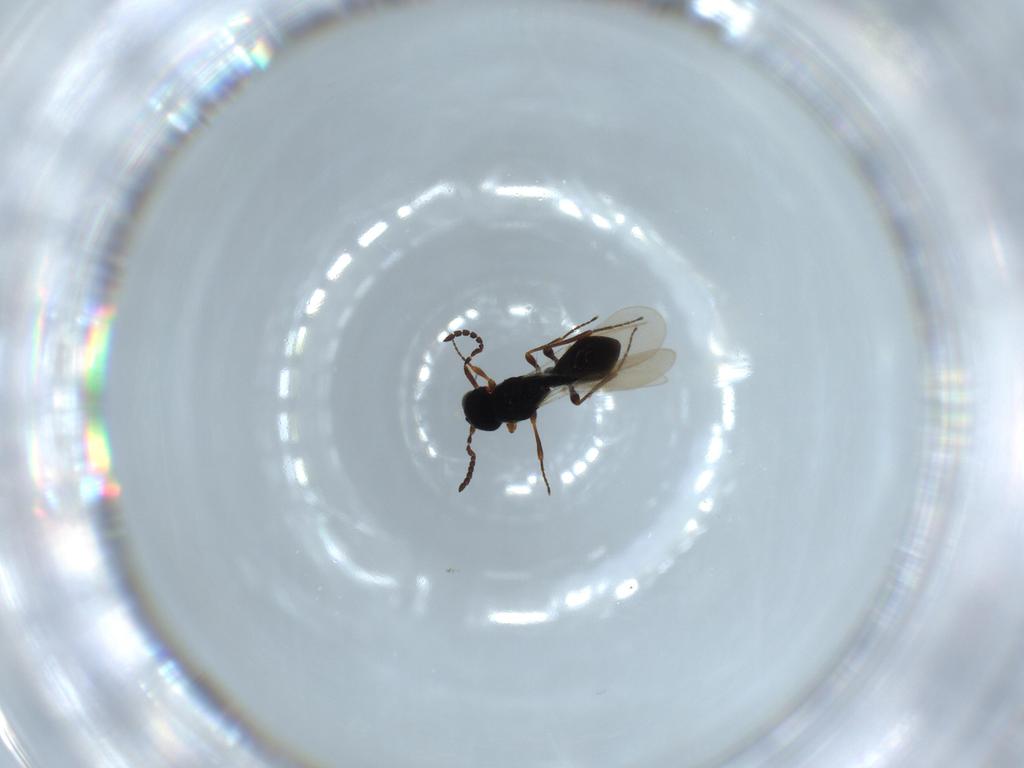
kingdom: Animalia
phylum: Arthropoda
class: Insecta
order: Hymenoptera
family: Platygastridae
